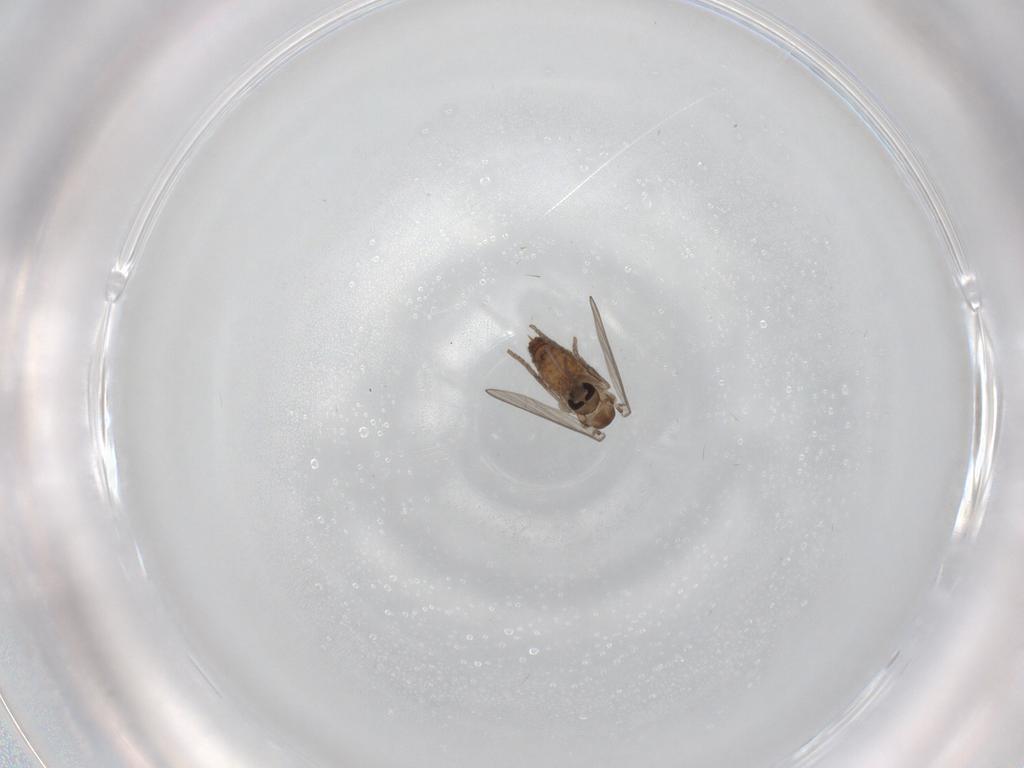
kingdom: Animalia
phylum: Arthropoda
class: Insecta
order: Diptera
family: Psychodidae
